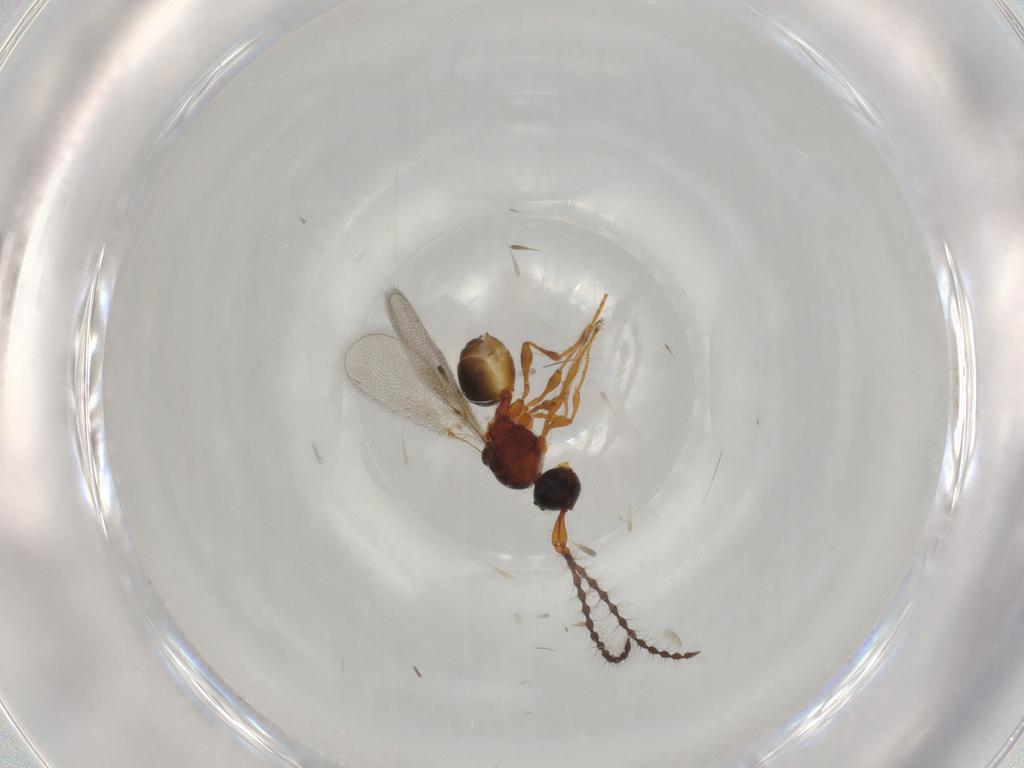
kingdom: Animalia
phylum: Arthropoda
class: Insecta
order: Hymenoptera
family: Diapriidae
